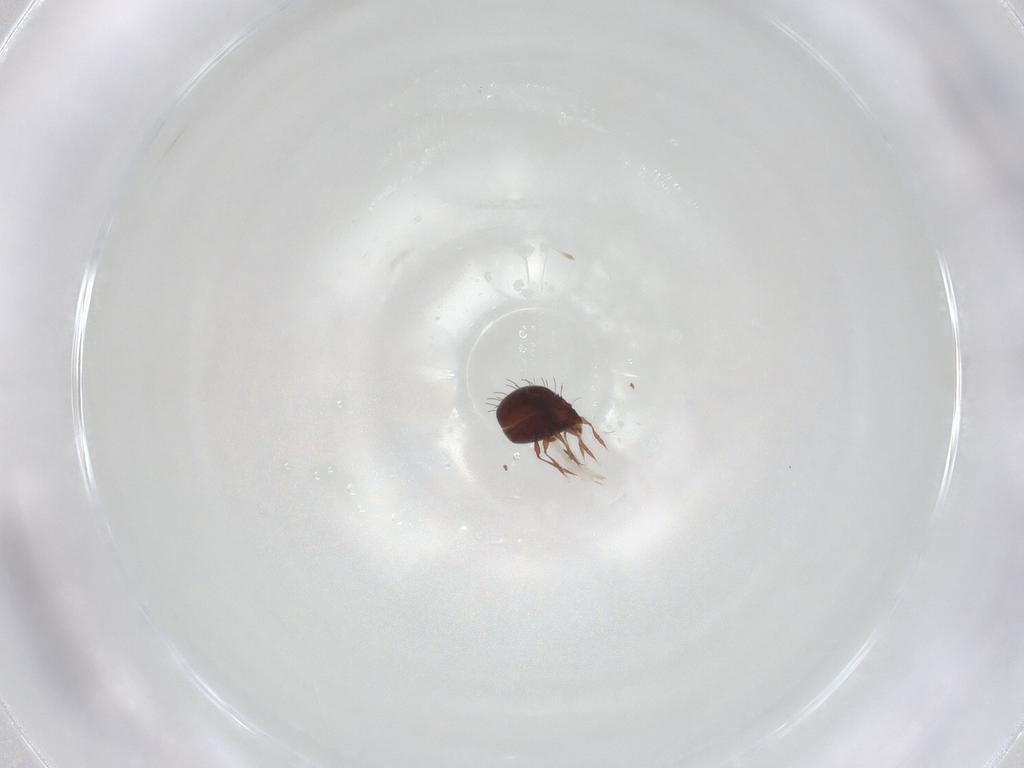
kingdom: Animalia
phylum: Arthropoda
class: Arachnida
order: Sarcoptiformes
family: Caloppiidae
